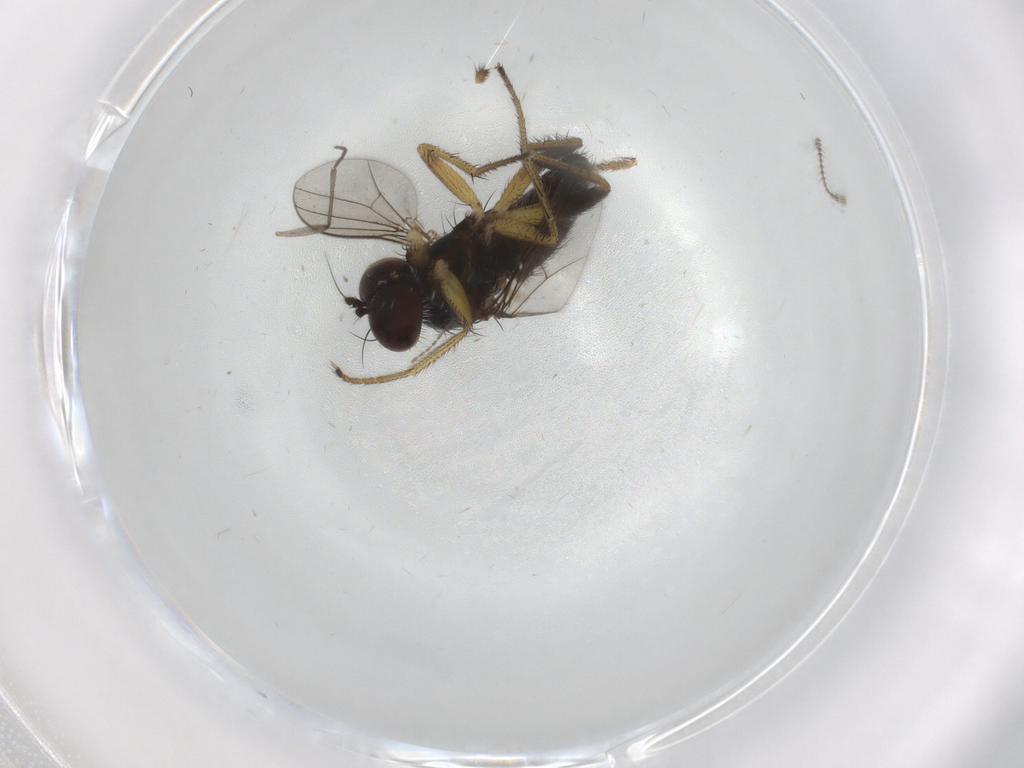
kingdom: Animalia
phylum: Arthropoda
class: Insecta
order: Diptera
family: Dolichopodidae
